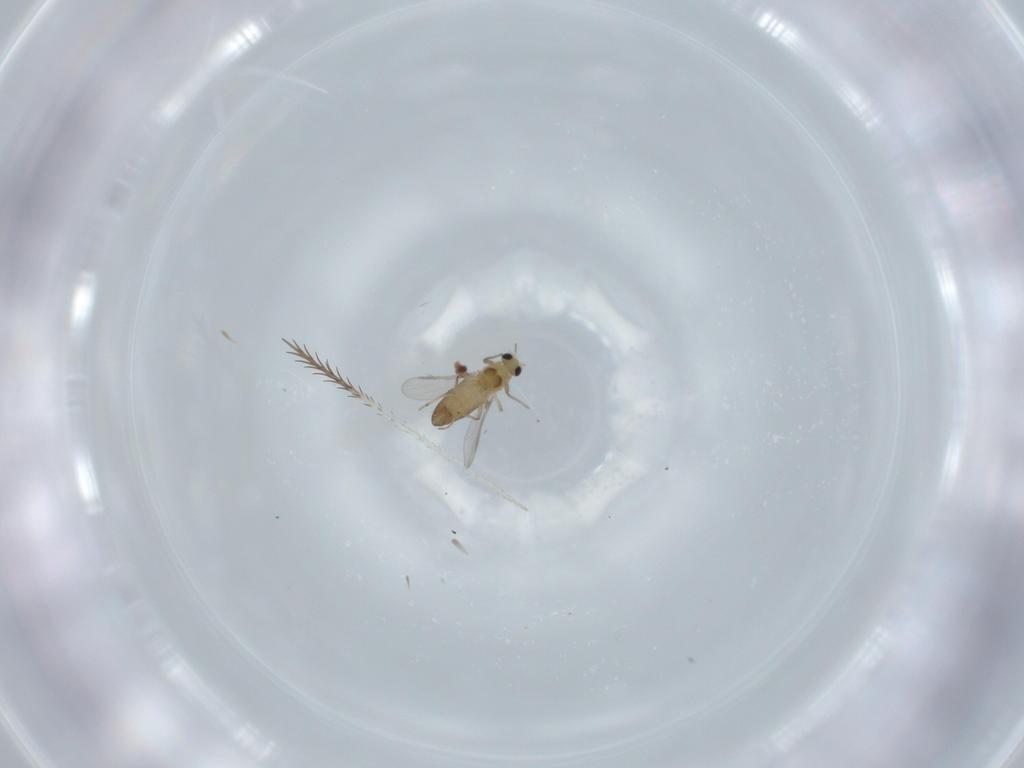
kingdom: Animalia
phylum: Arthropoda
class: Insecta
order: Diptera
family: Chironomidae
